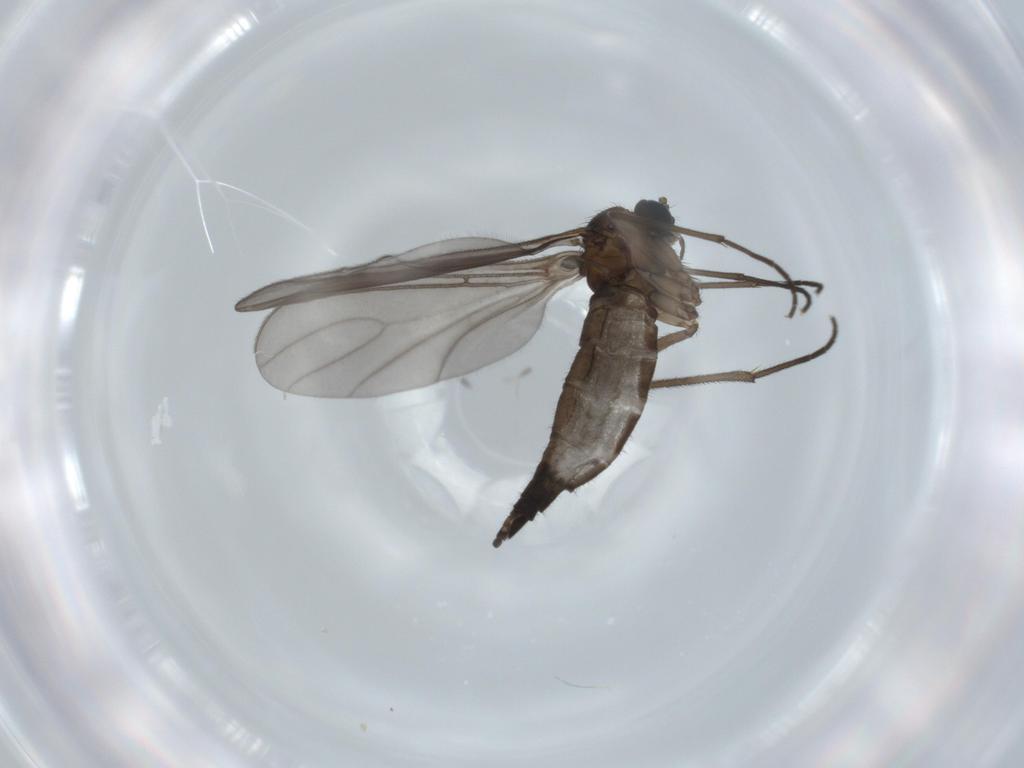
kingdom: Animalia
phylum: Arthropoda
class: Insecta
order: Diptera
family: Sciaridae
